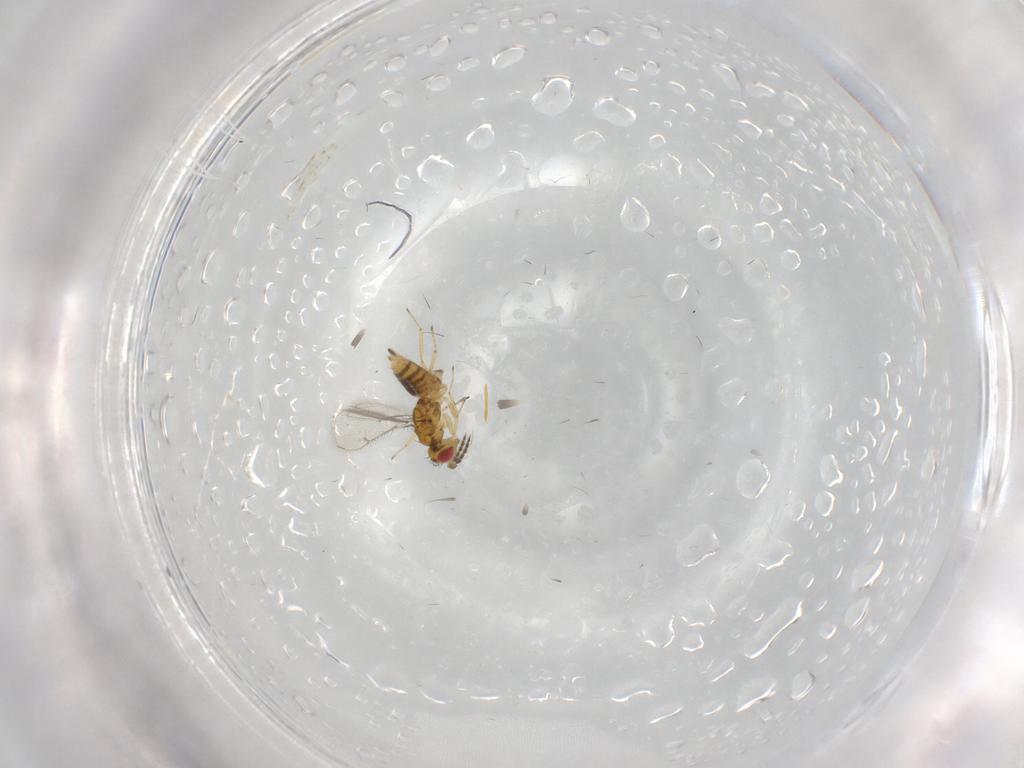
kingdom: Animalia
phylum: Arthropoda
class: Insecta
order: Hymenoptera
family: Eulophidae
